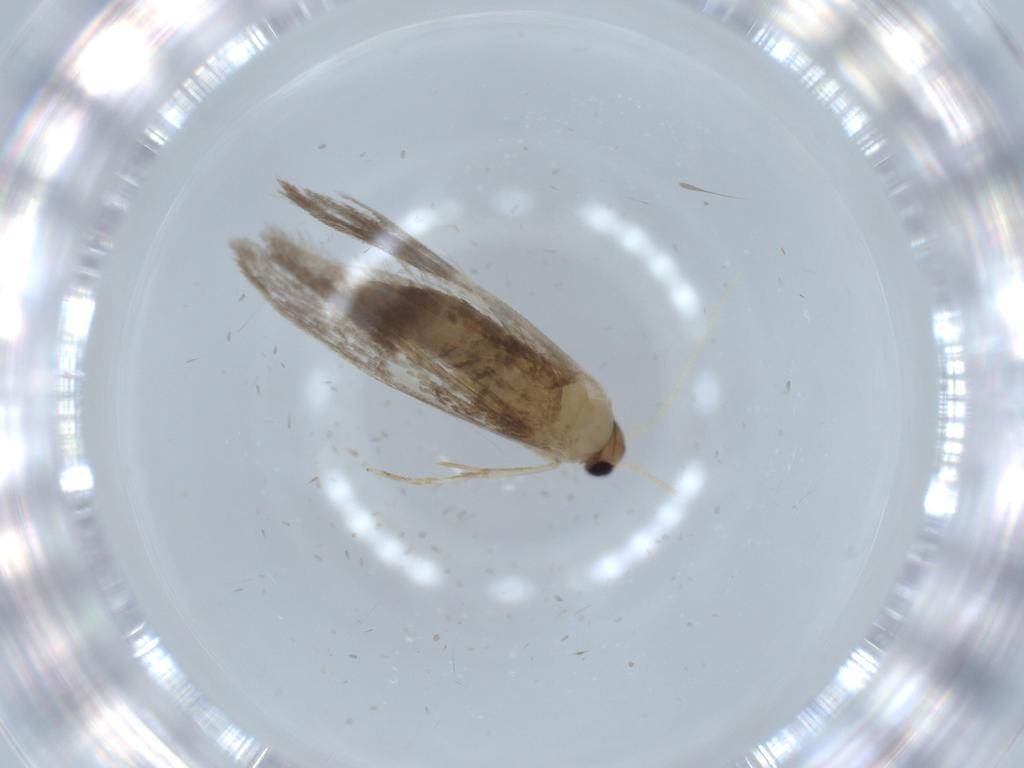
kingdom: Animalia
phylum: Arthropoda
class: Insecta
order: Lepidoptera
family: Tineidae
